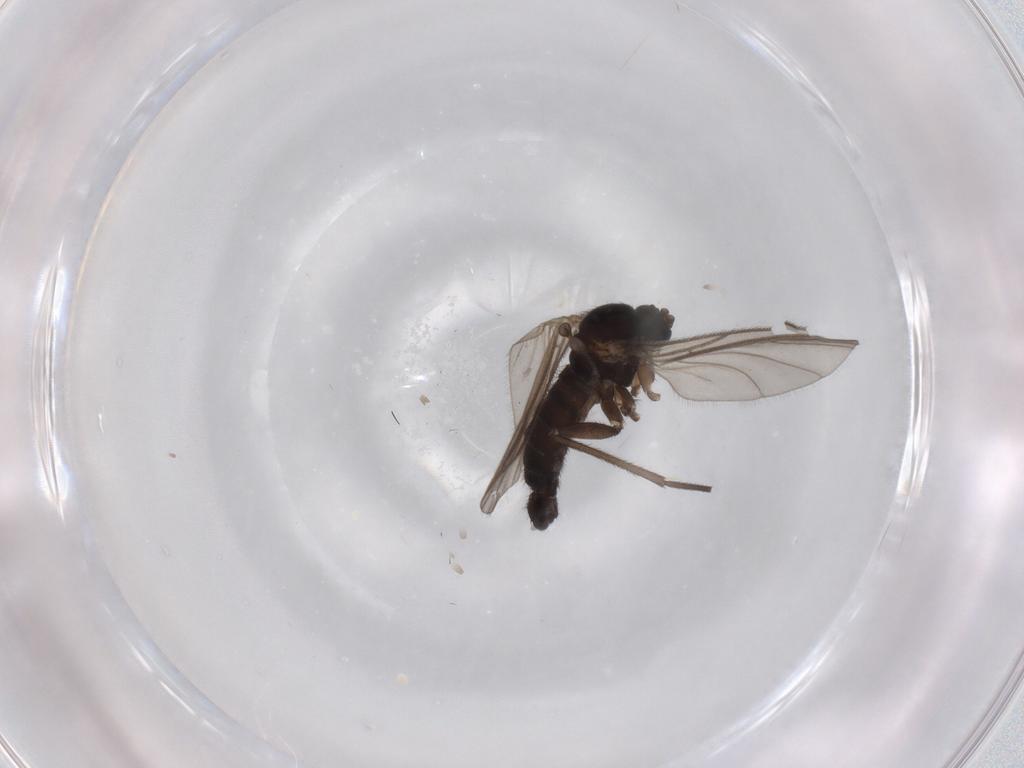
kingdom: Animalia
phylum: Arthropoda
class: Insecta
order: Diptera
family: Sciaridae
